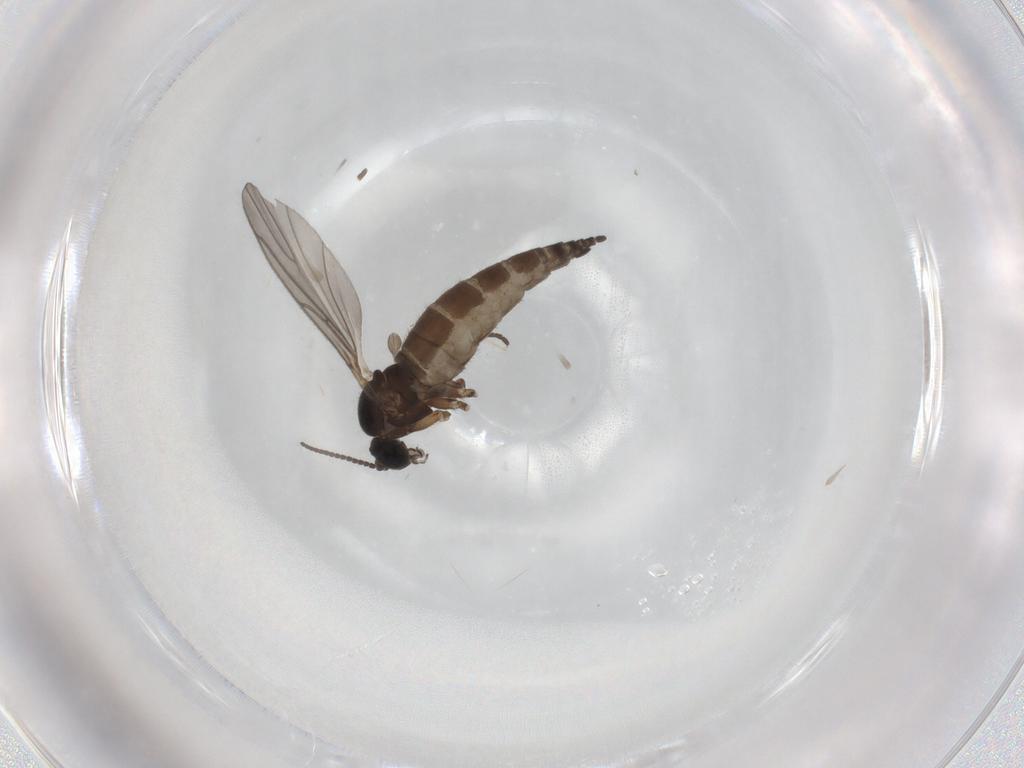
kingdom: Animalia
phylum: Arthropoda
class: Insecta
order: Diptera
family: Sciaridae
